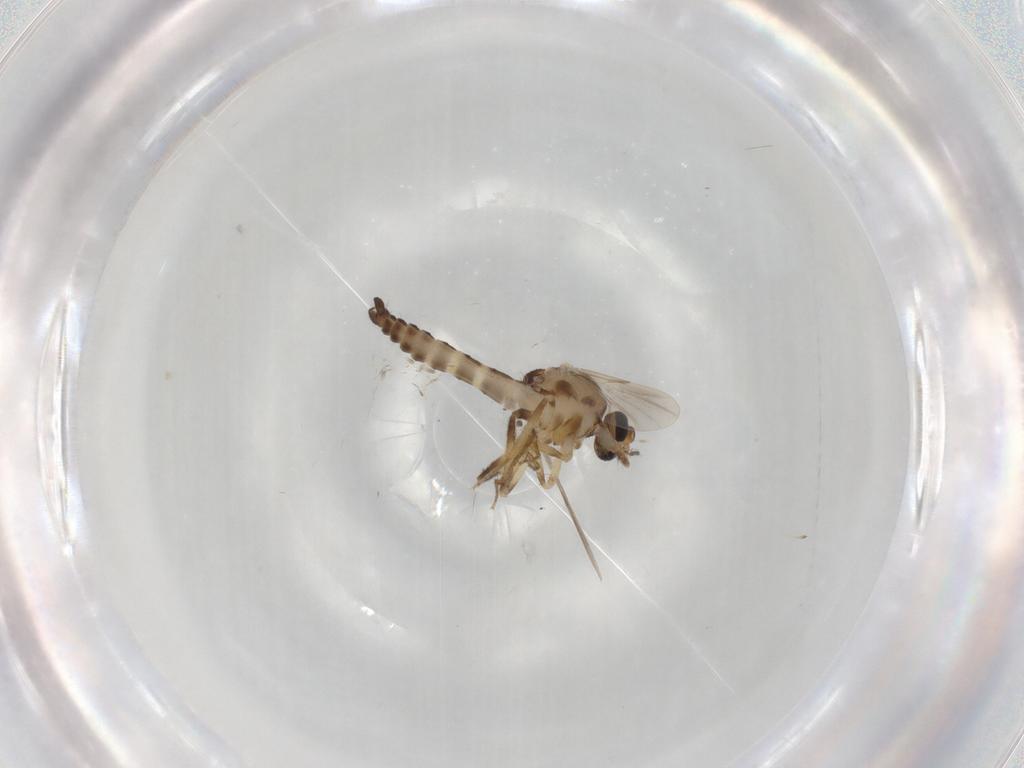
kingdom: Animalia
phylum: Arthropoda
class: Insecta
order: Diptera
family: Ceratopogonidae
